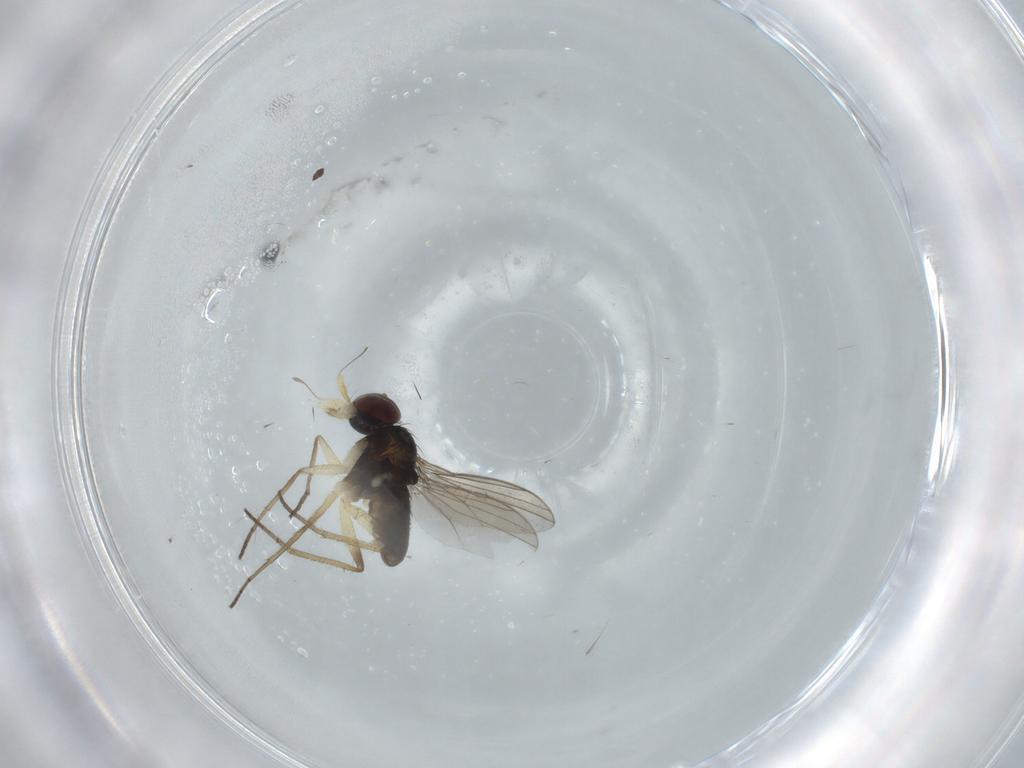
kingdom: Animalia
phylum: Arthropoda
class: Insecta
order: Diptera
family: Dolichopodidae
